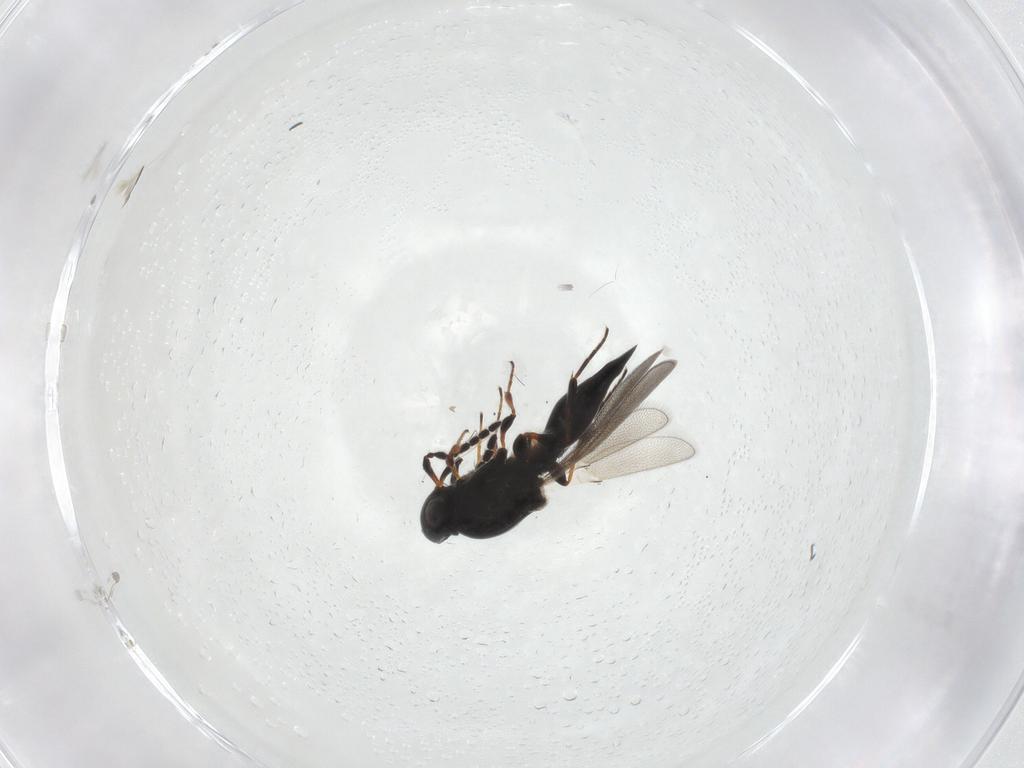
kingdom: Animalia
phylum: Arthropoda
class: Insecta
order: Hymenoptera
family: Platygastridae
